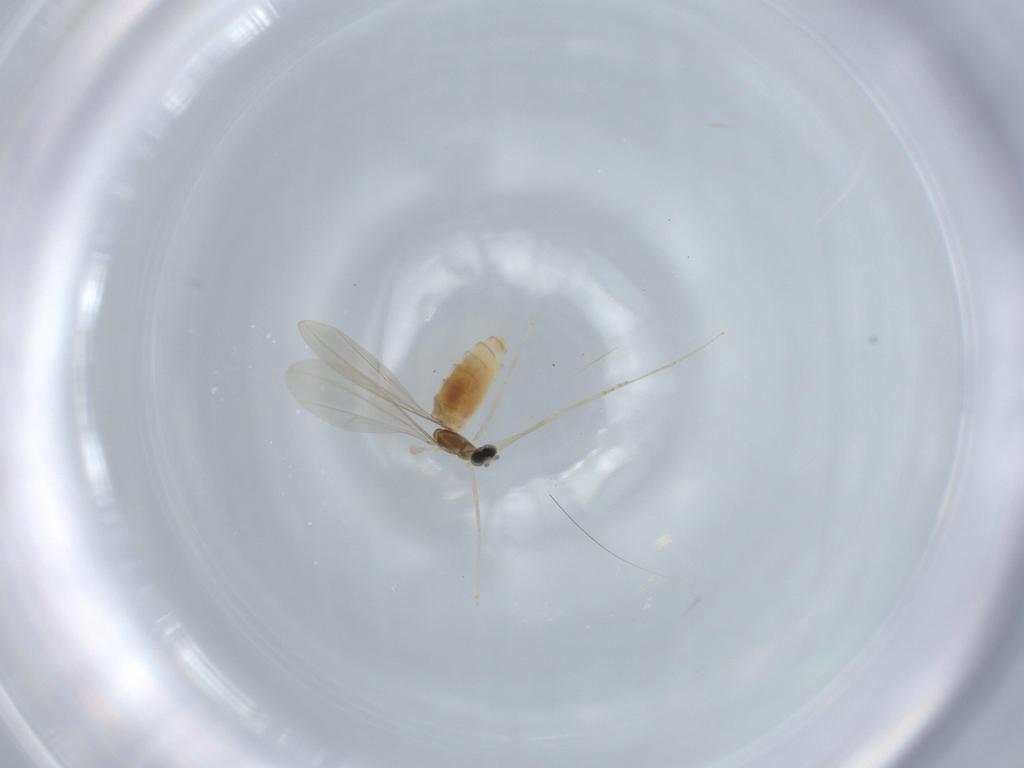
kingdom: Animalia
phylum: Arthropoda
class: Insecta
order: Diptera
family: Cecidomyiidae
